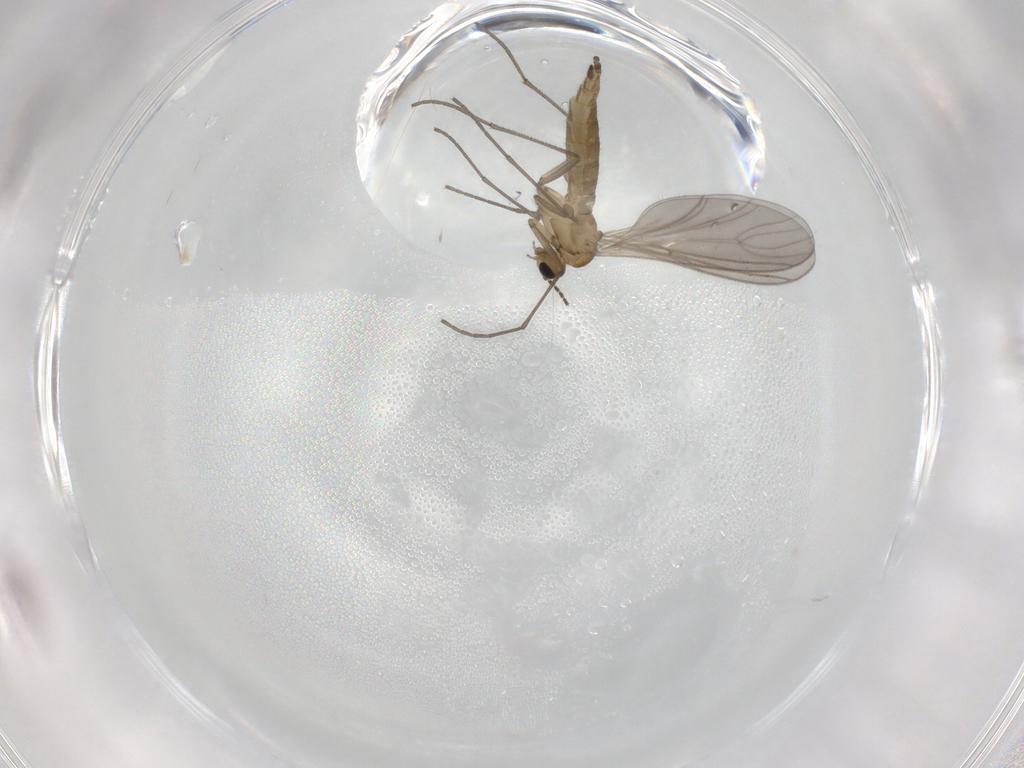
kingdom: Animalia
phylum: Arthropoda
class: Insecta
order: Diptera
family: Sciaridae
